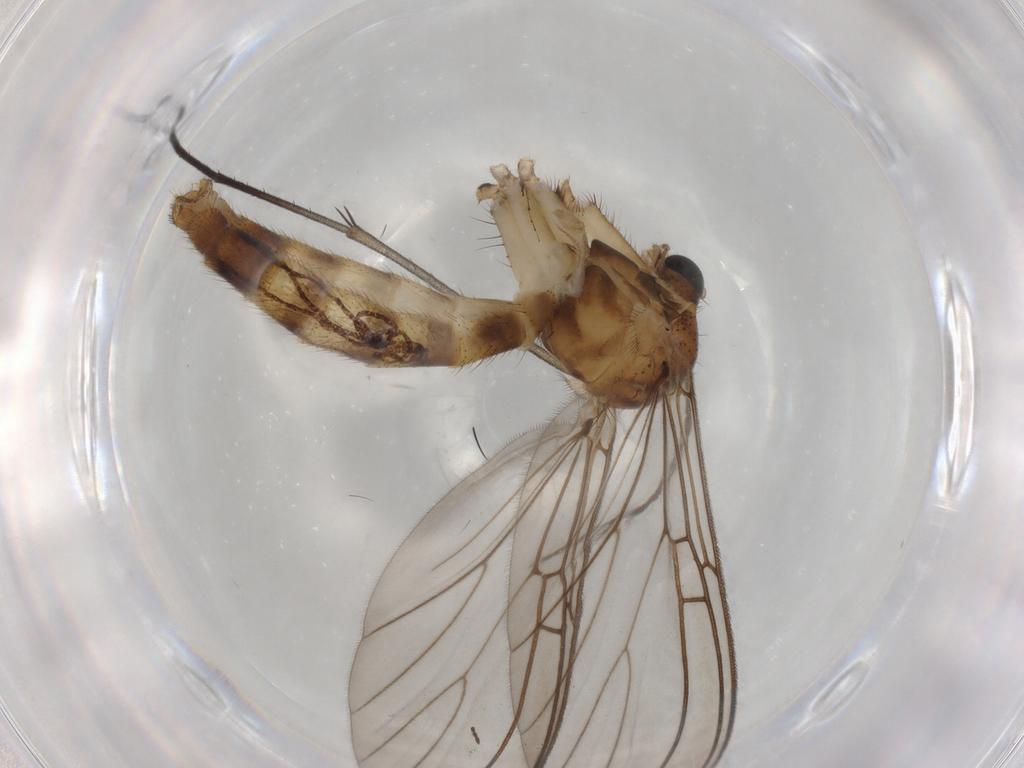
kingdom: Animalia
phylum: Arthropoda
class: Insecta
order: Diptera
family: Mycetophilidae
